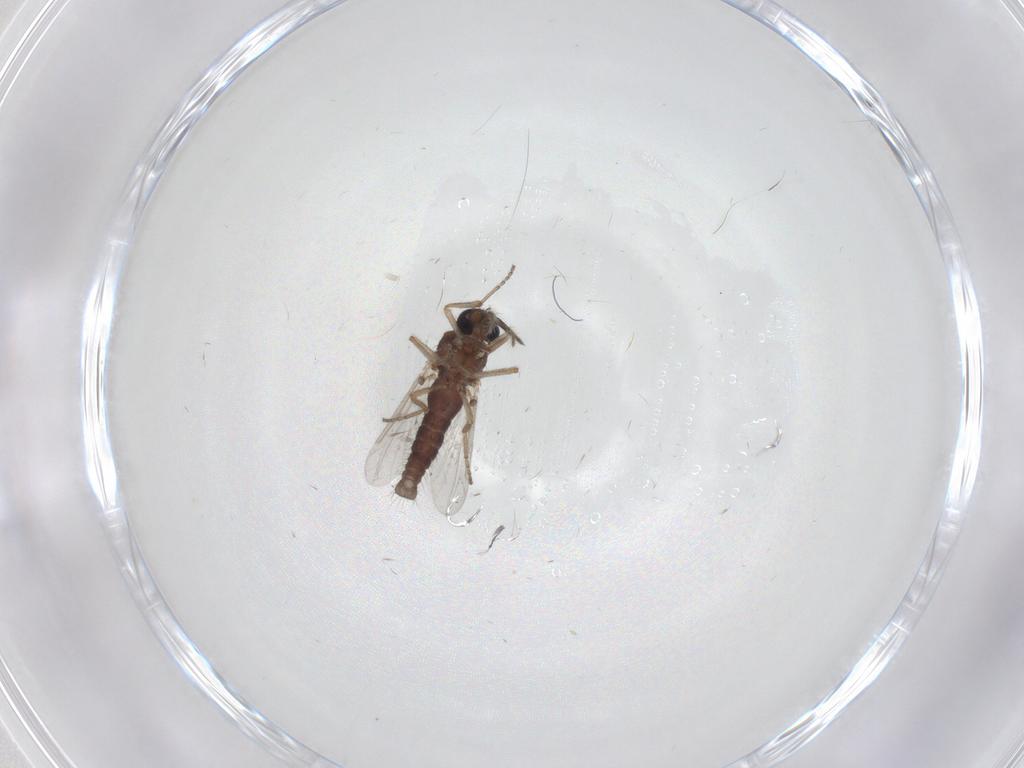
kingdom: Animalia
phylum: Arthropoda
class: Insecta
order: Diptera
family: Ceratopogonidae
